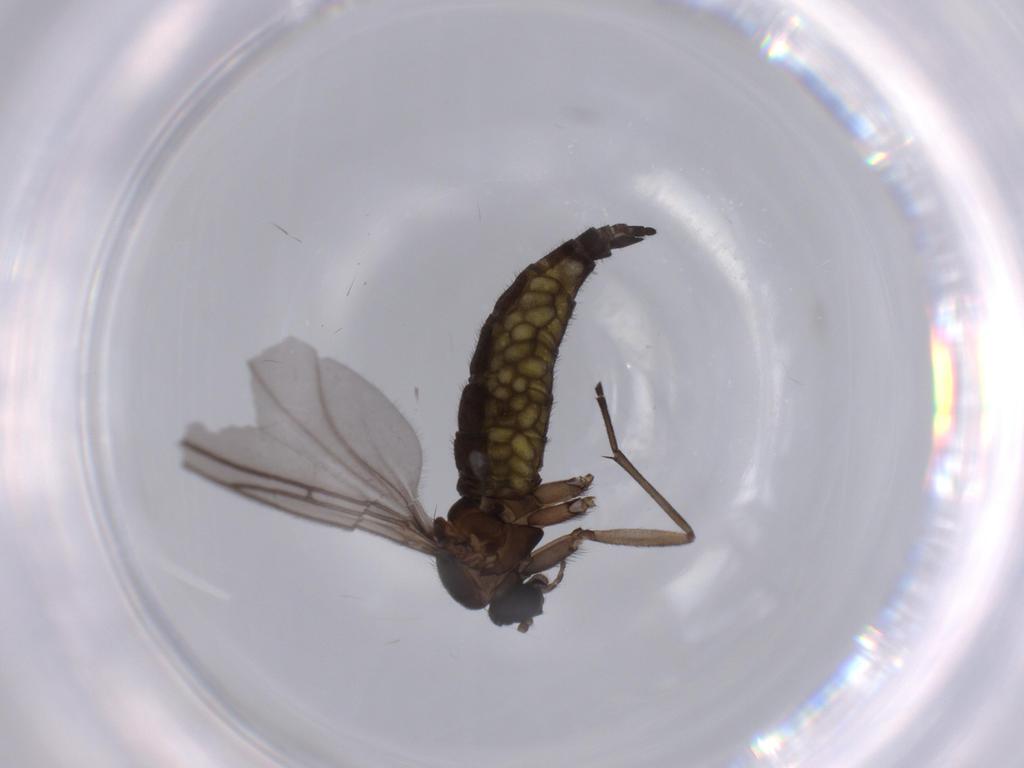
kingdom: Animalia
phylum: Arthropoda
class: Insecta
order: Diptera
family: Sciaridae
